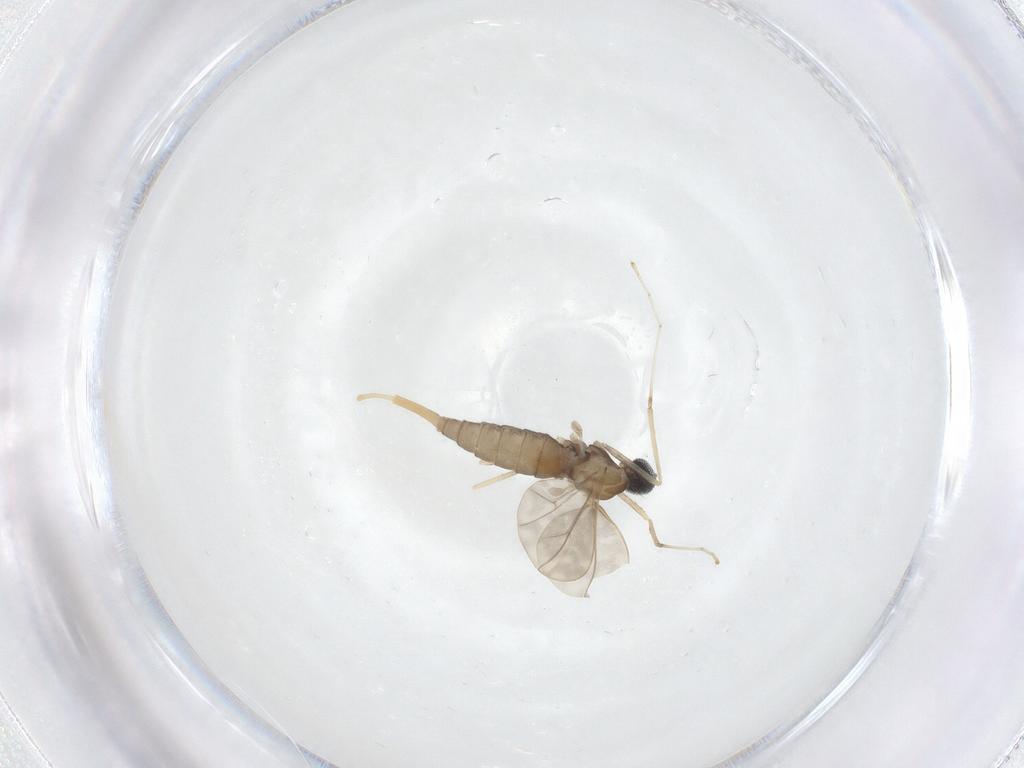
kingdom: Animalia
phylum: Arthropoda
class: Insecta
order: Diptera
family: Cecidomyiidae
